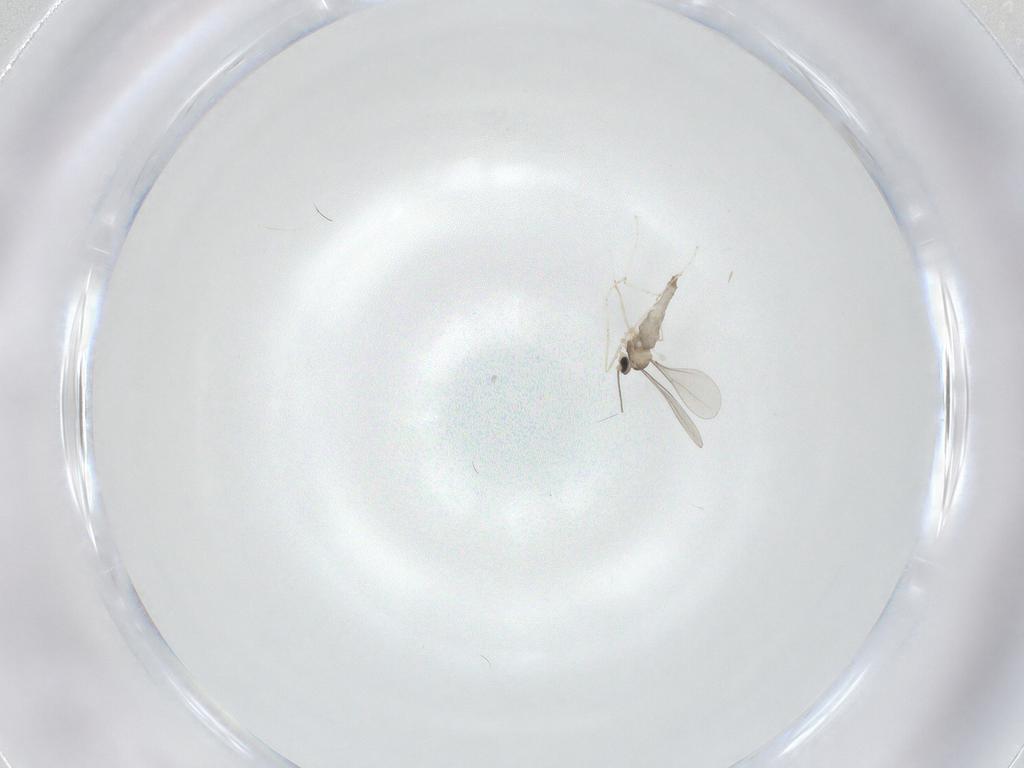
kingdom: Animalia
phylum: Arthropoda
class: Insecta
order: Diptera
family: Cecidomyiidae
